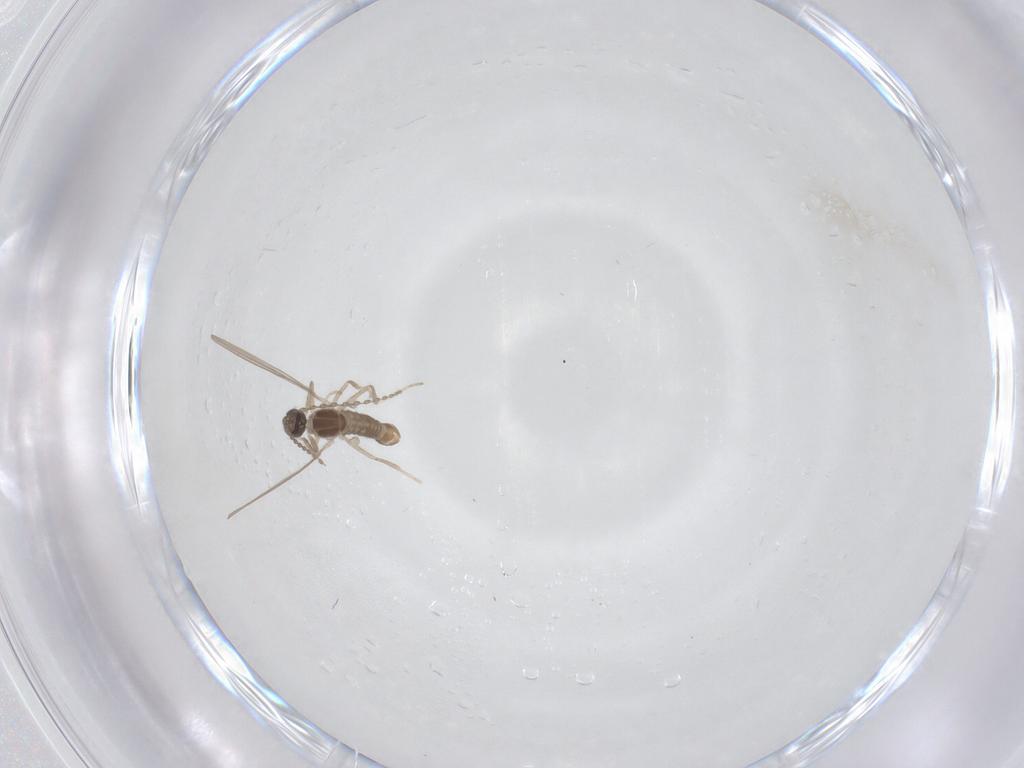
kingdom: Animalia
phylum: Arthropoda
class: Insecta
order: Diptera
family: Cecidomyiidae
